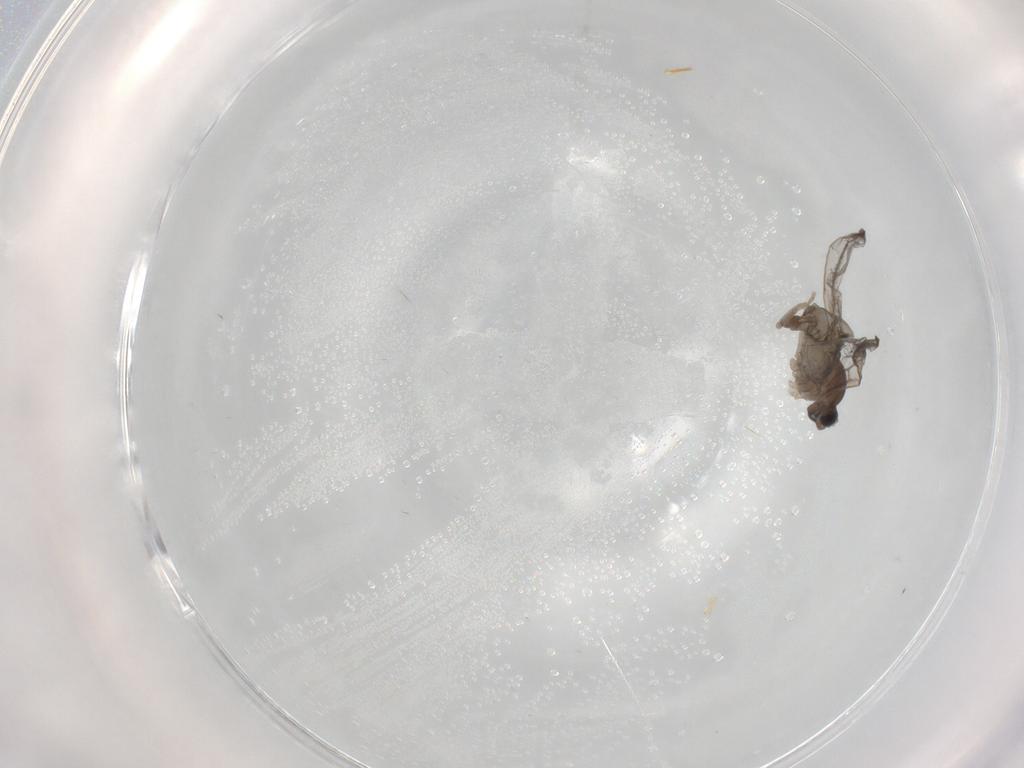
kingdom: Animalia
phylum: Arthropoda
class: Insecta
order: Diptera
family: Cecidomyiidae
